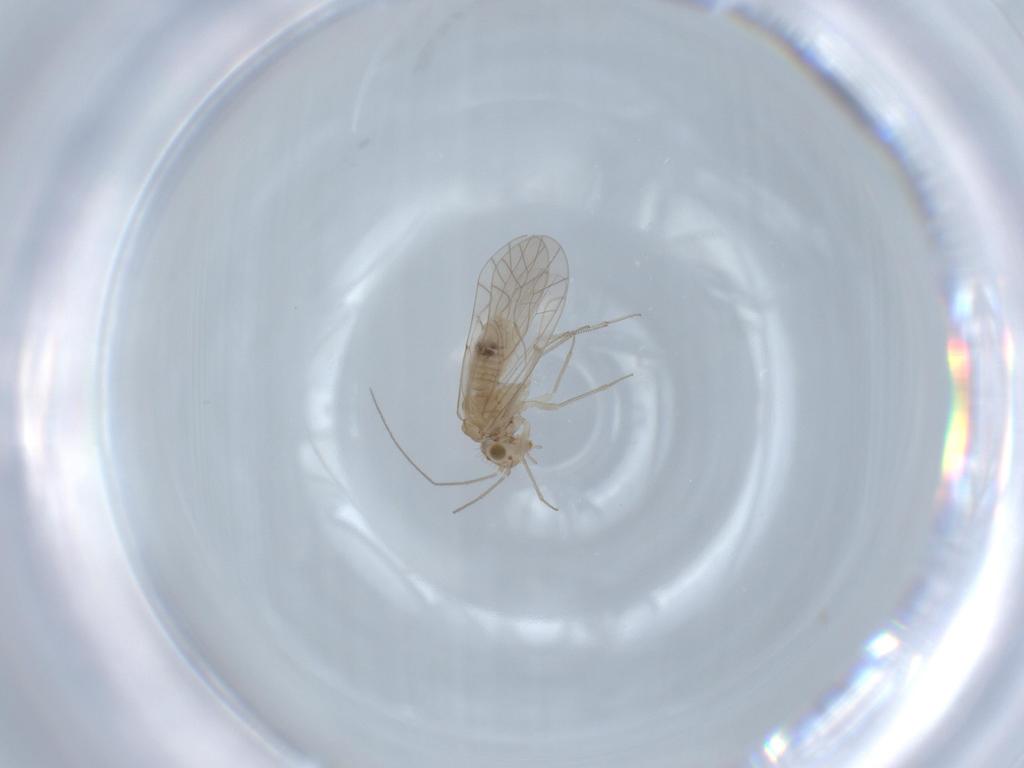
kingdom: Animalia
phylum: Arthropoda
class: Insecta
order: Psocodea
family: Lachesillidae
